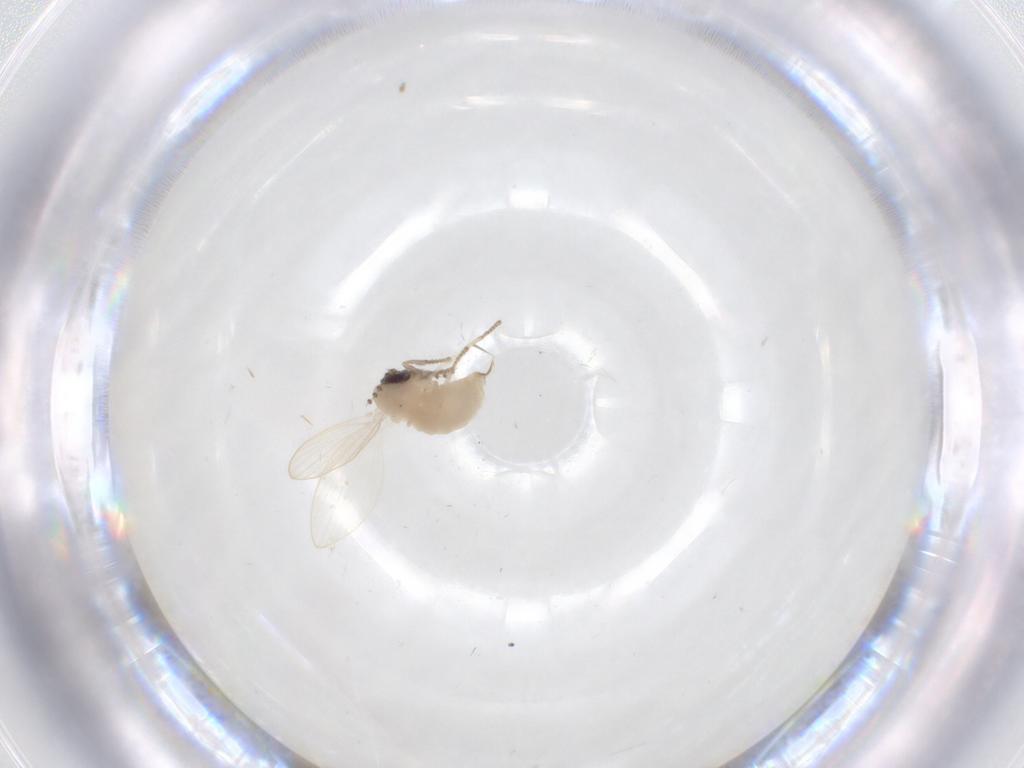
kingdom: Animalia
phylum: Arthropoda
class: Insecta
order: Diptera
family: Psychodidae
